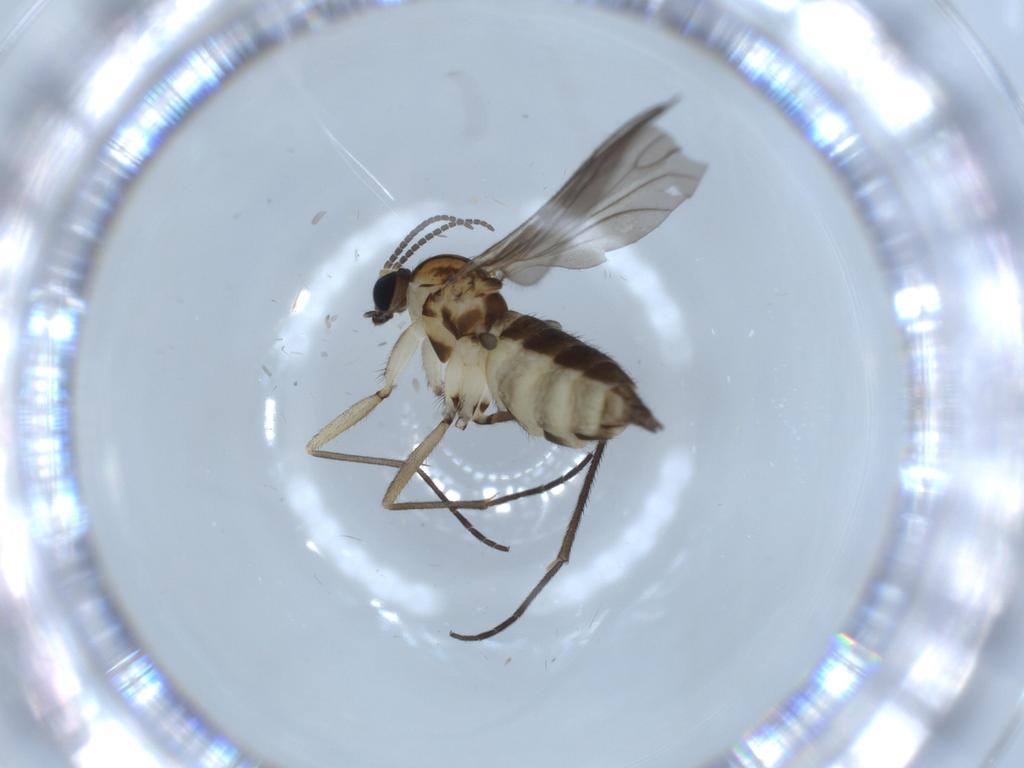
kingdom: Animalia
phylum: Arthropoda
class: Insecta
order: Diptera
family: Sciaridae
